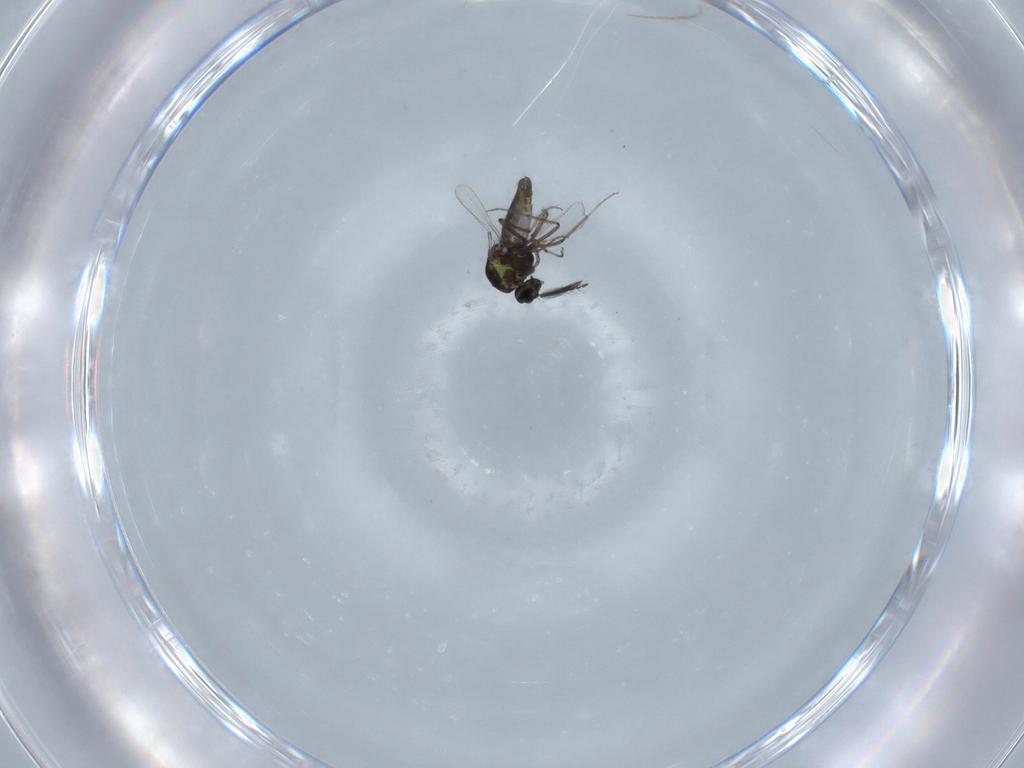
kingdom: Animalia
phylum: Arthropoda
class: Insecta
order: Diptera
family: Ceratopogonidae
